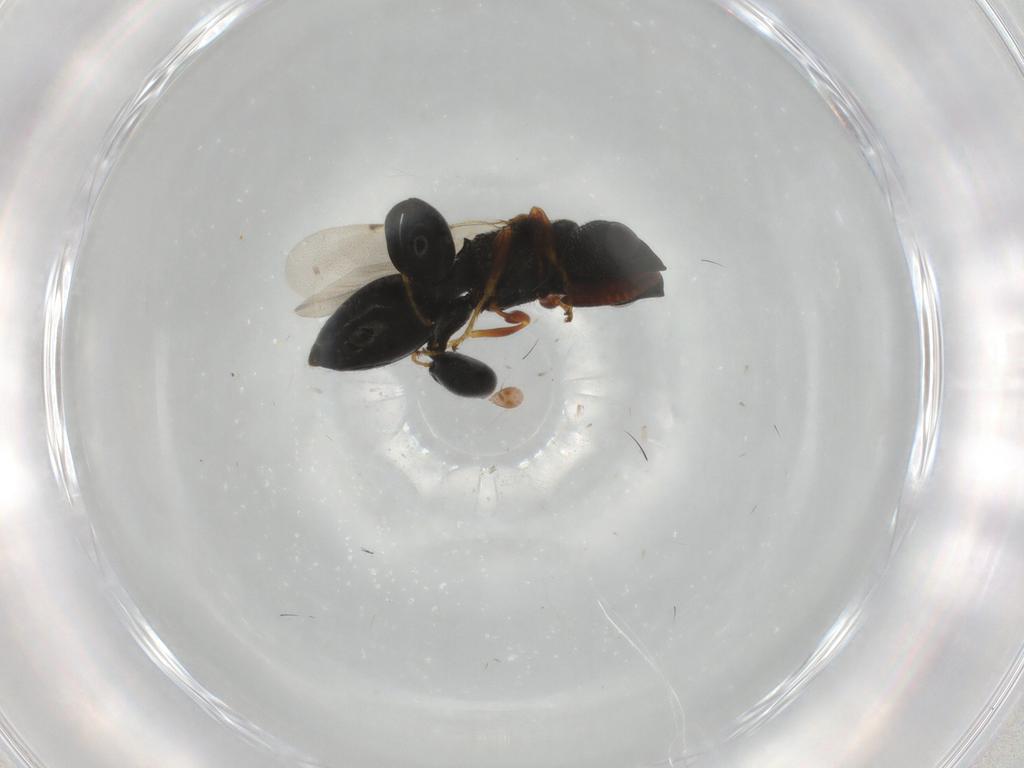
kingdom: Animalia
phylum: Arthropoda
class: Insecta
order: Hymenoptera
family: Chalcididae
